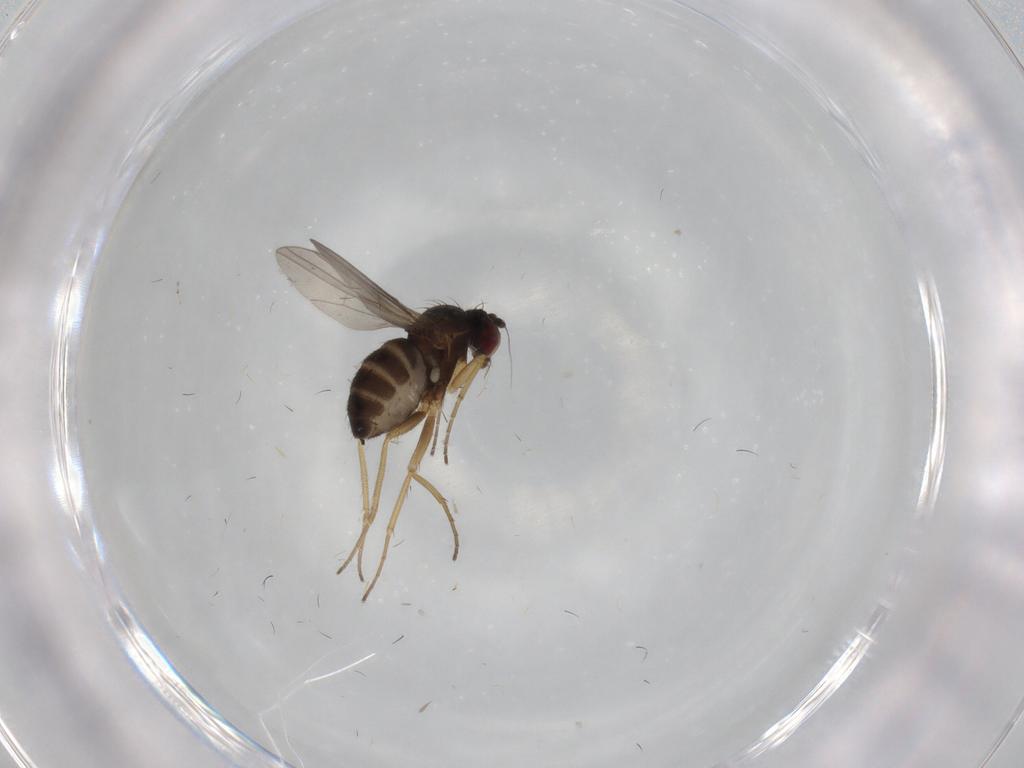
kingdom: Animalia
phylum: Arthropoda
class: Insecta
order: Diptera
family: Dolichopodidae
